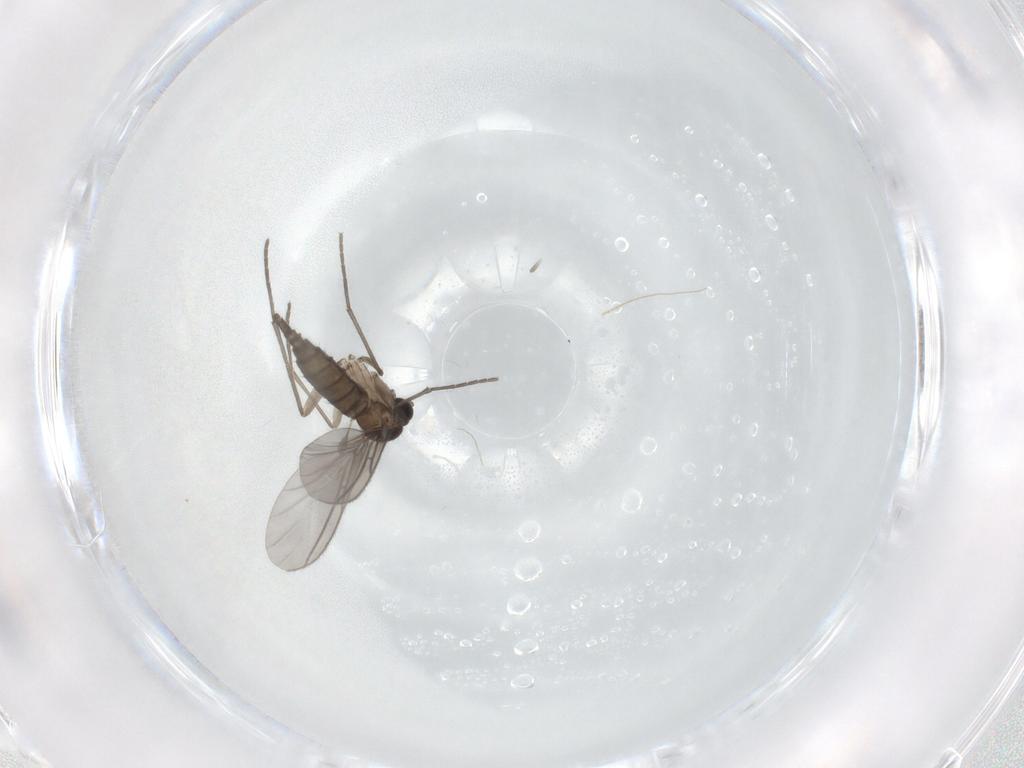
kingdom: Animalia
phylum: Arthropoda
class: Insecta
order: Diptera
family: Sciaridae
